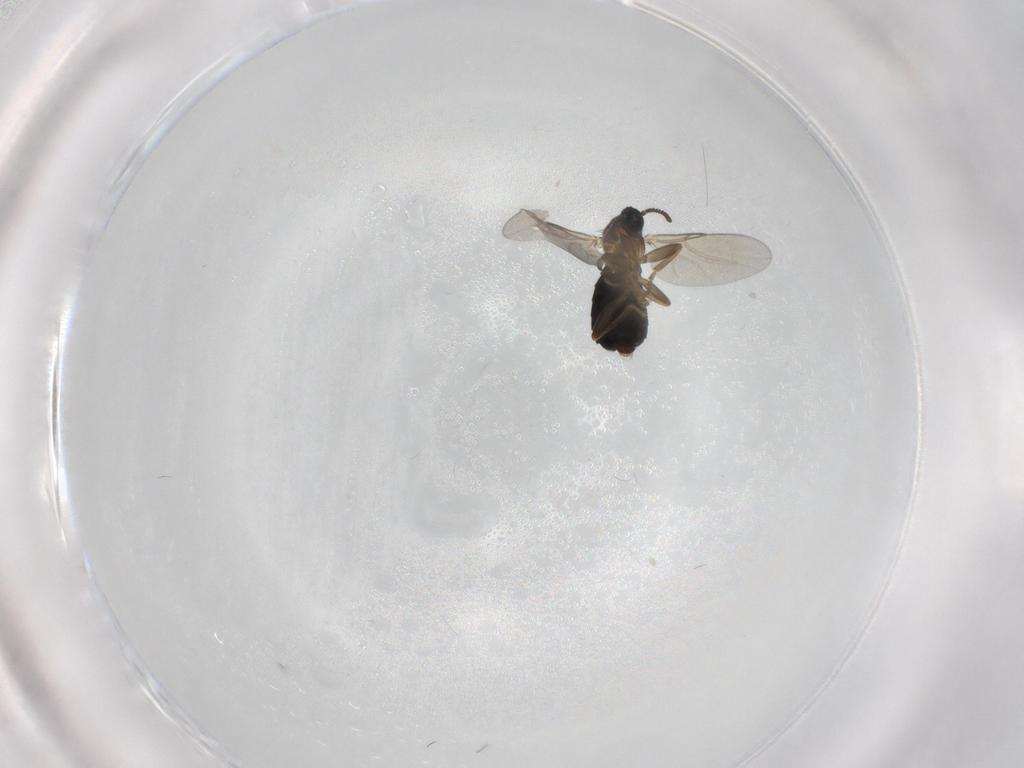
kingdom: Animalia
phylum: Arthropoda
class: Insecta
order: Diptera
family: Scatopsidae
